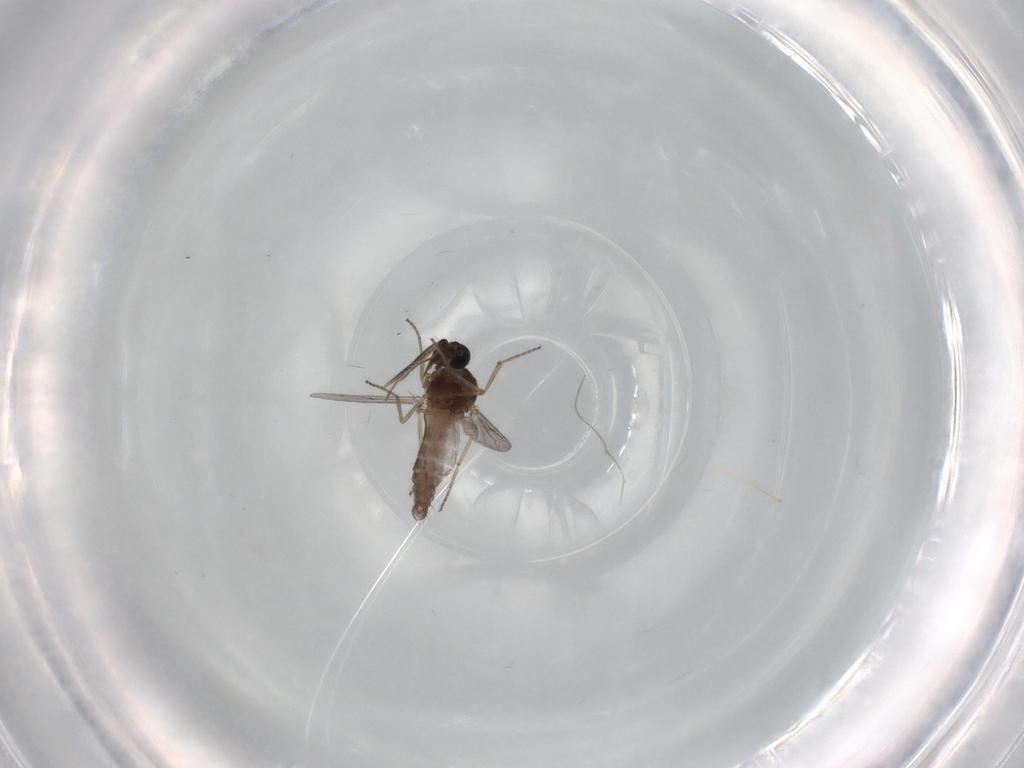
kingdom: Animalia
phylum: Arthropoda
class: Insecta
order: Diptera
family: Ceratopogonidae
